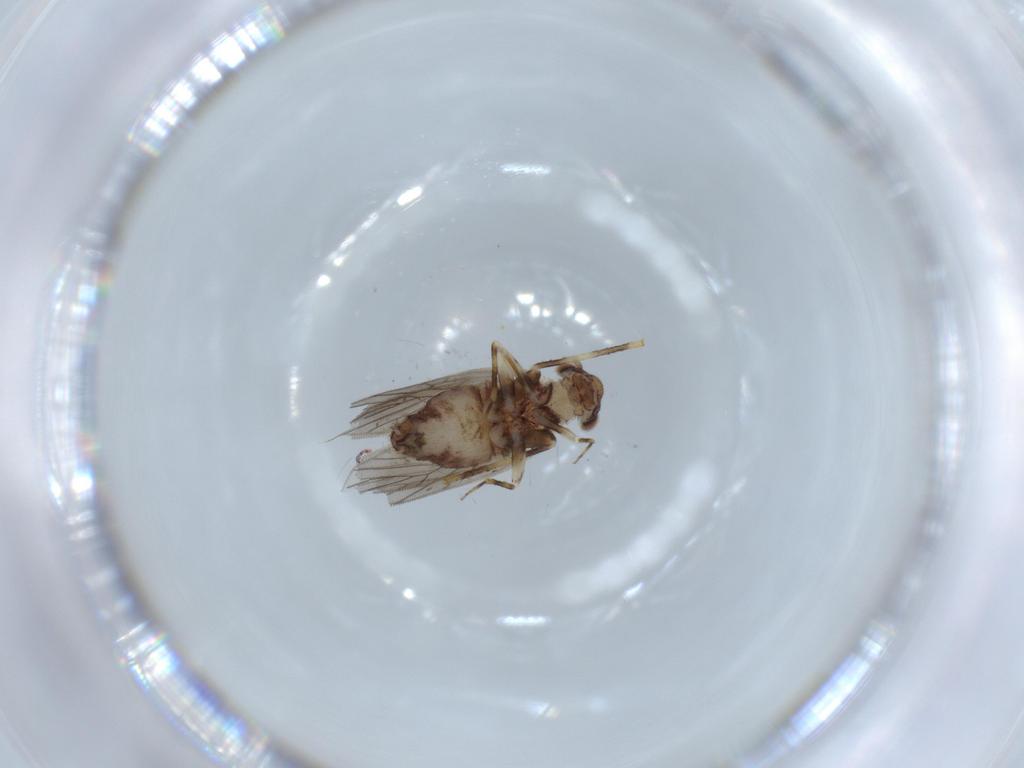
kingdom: Animalia
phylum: Arthropoda
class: Insecta
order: Psocodea
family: Lepidopsocidae
